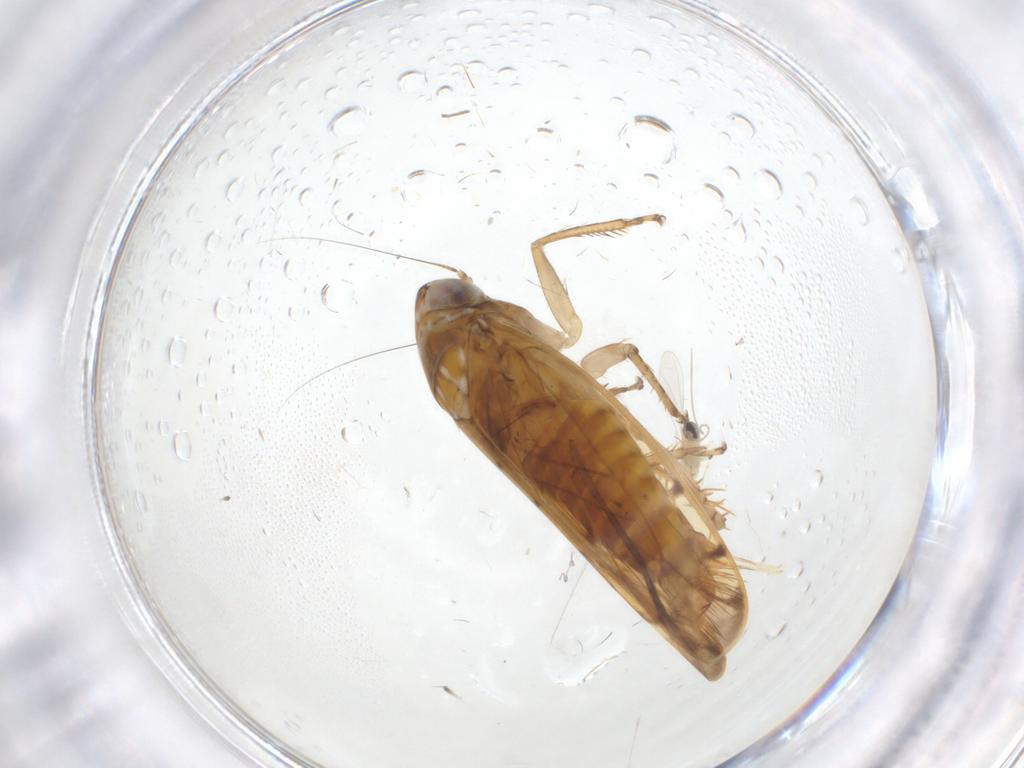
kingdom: Animalia
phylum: Arthropoda
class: Insecta
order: Hemiptera
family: Cicadellidae
